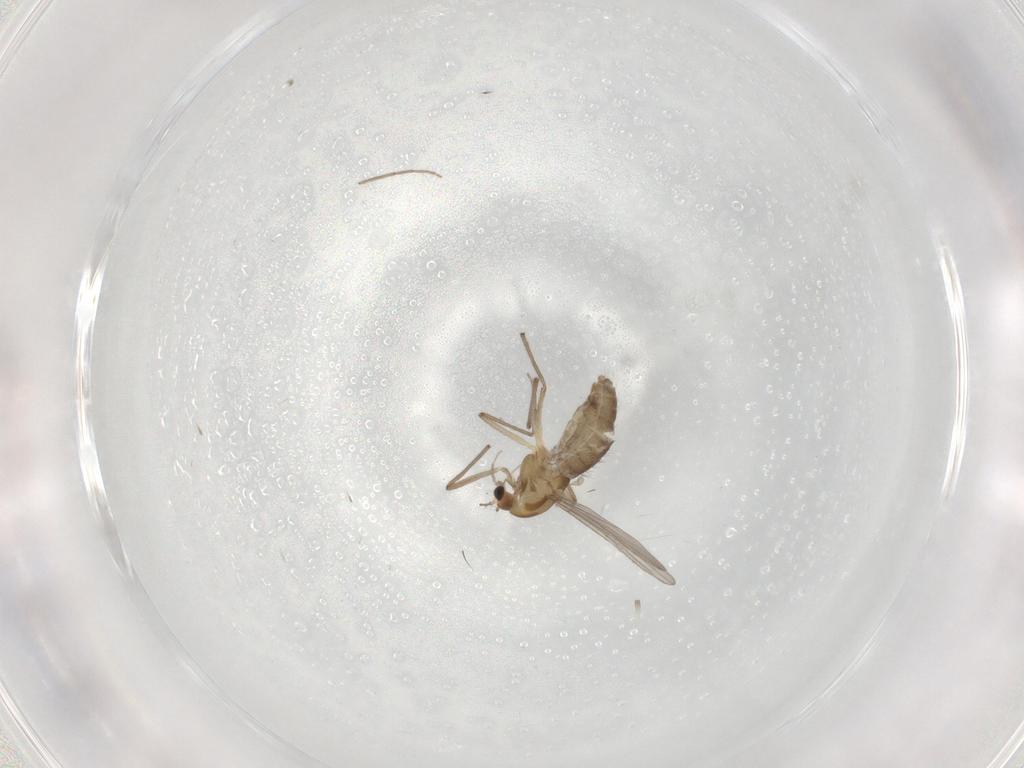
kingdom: Animalia
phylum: Arthropoda
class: Insecta
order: Diptera
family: Chironomidae
